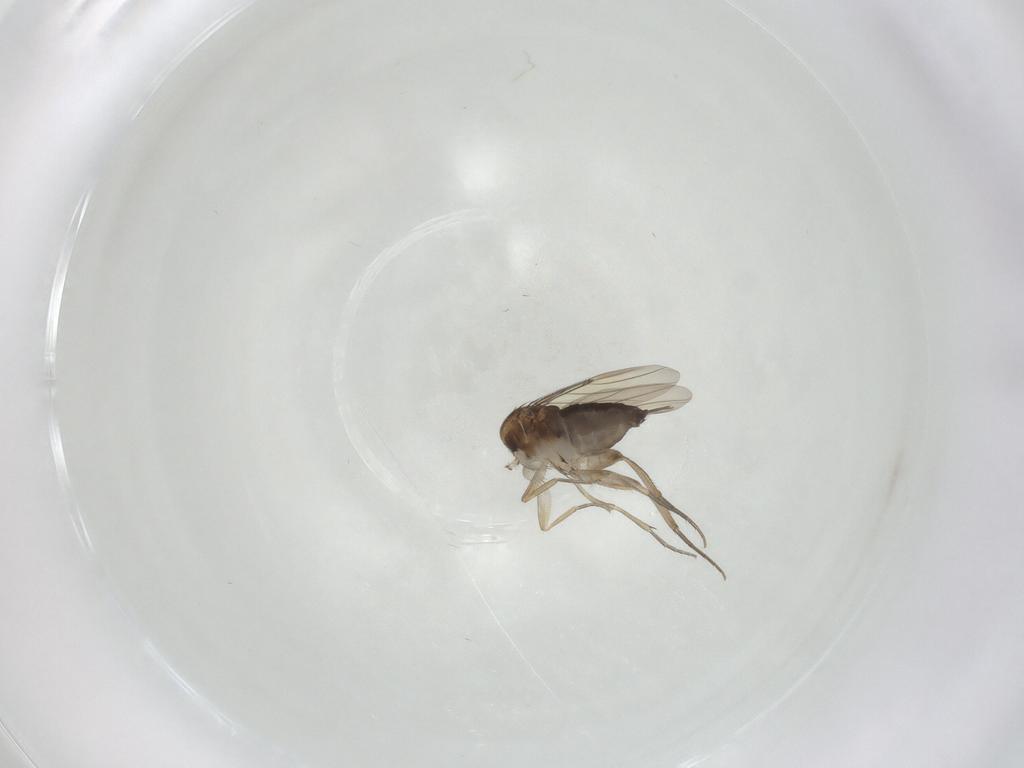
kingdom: Animalia
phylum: Arthropoda
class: Insecta
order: Diptera
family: Phoridae
